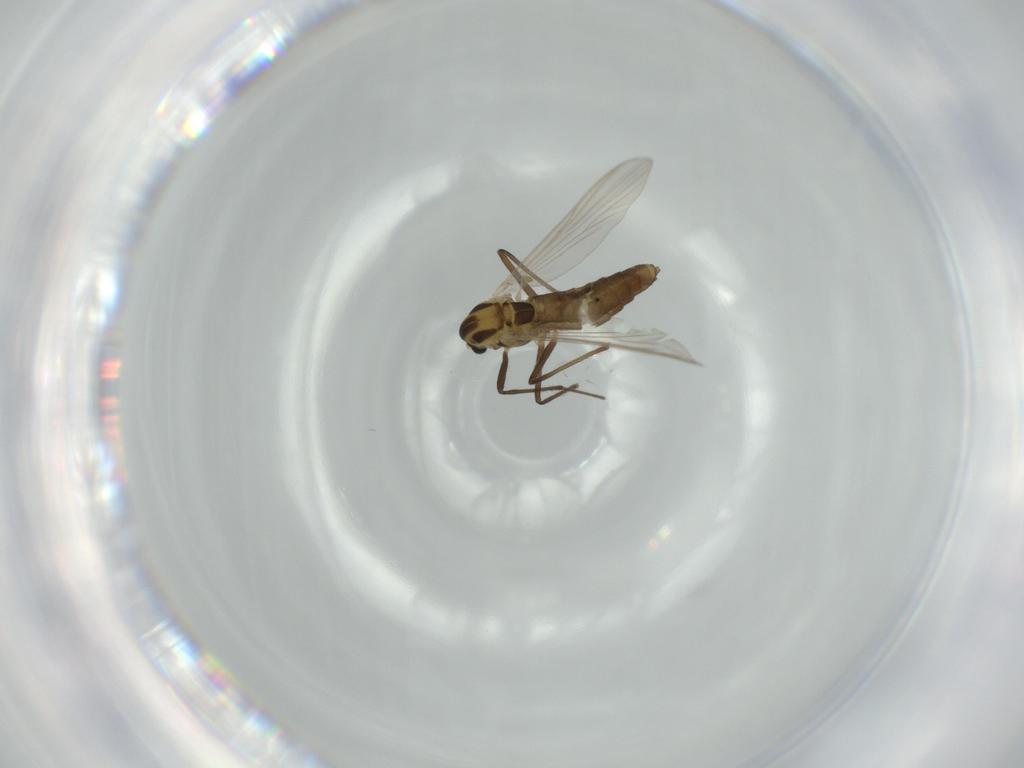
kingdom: Animalia
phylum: Arthropoda
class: Insecta
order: Diptera
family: Chironomidae
